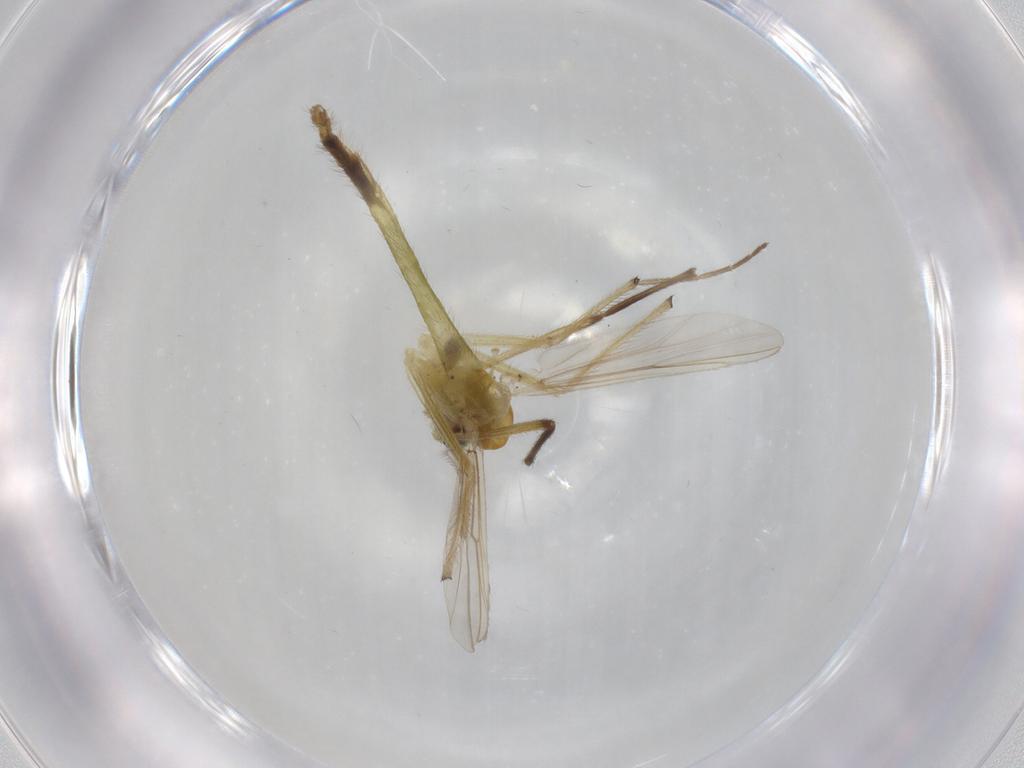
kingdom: Animalia
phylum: Arthropoda
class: Insecta
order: Diptera
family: Chironomidae
